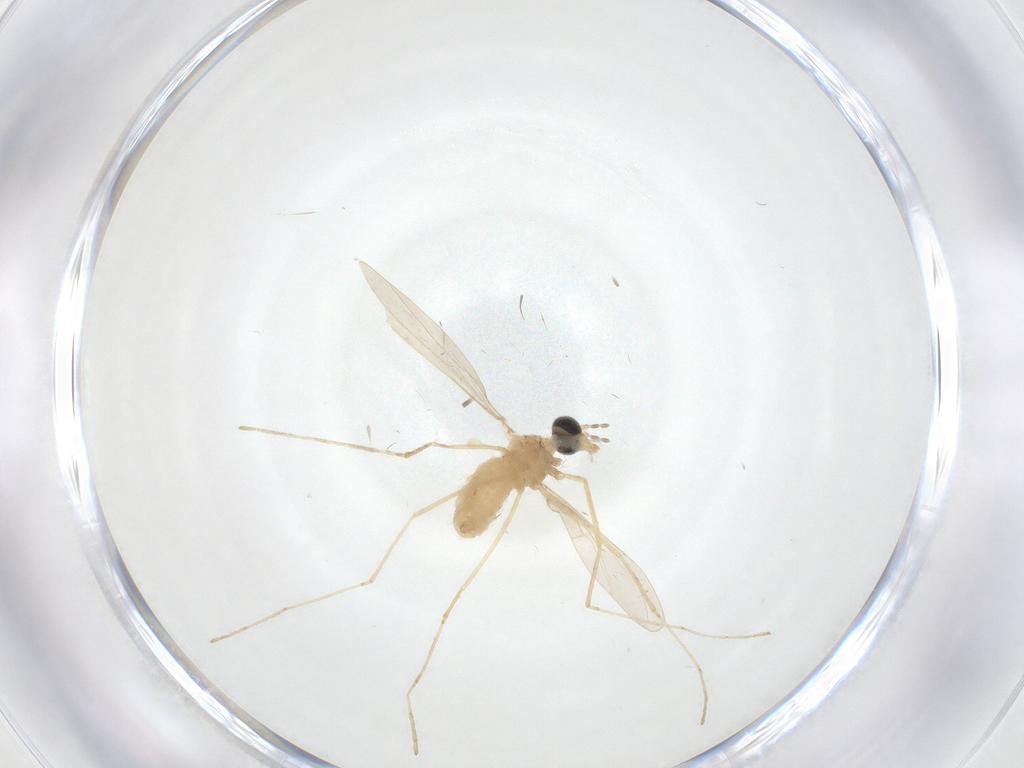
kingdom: Animalia
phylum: Arthropoda
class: Insecta
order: Diptera
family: Cecidomyiidae
